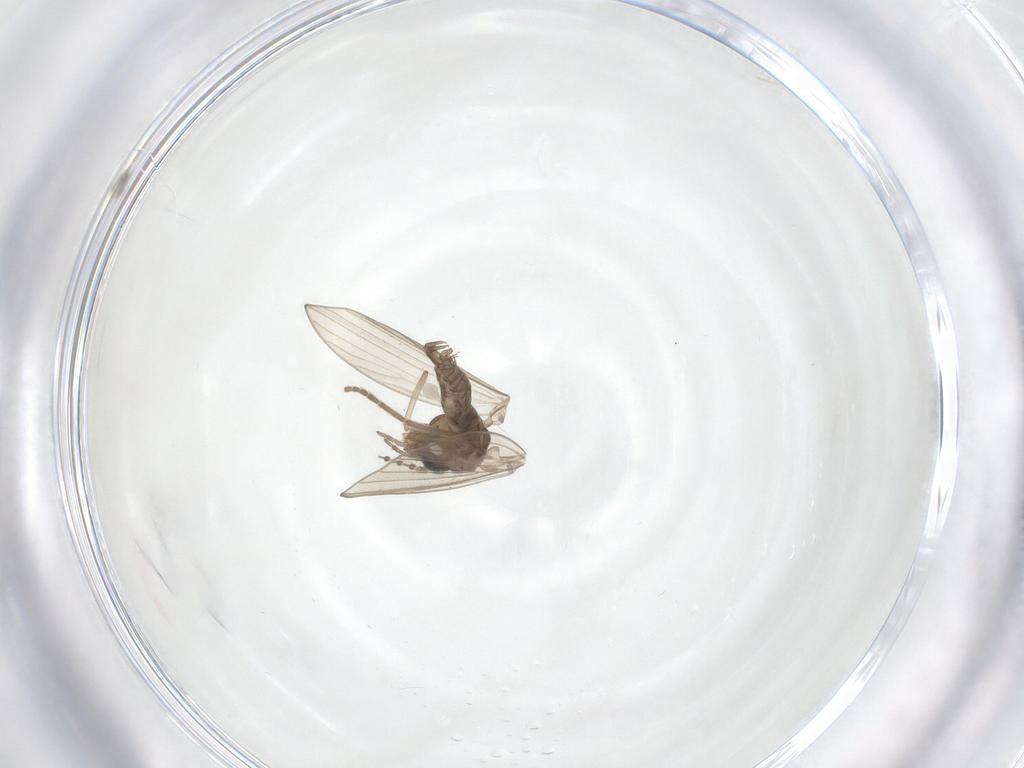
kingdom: Animalia
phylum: Arthropoda
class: Insecta
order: Diptera
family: Psychodidae
